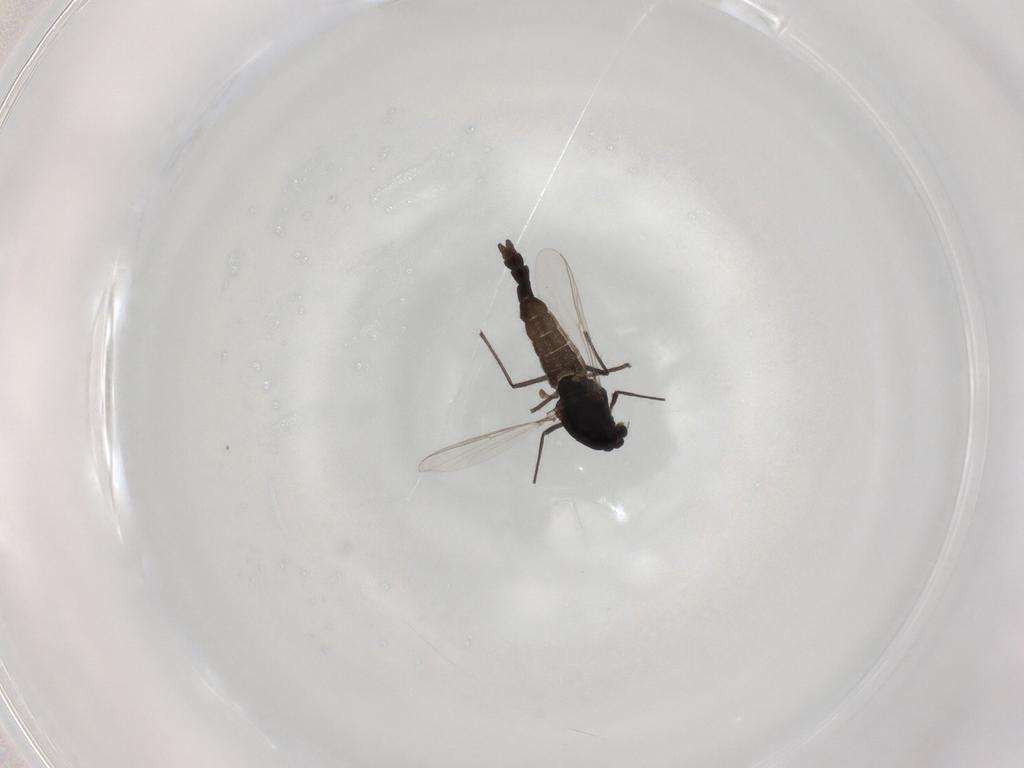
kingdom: Animalia
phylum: Arthropoda
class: Insecta
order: Diptera
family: Chironomidae
